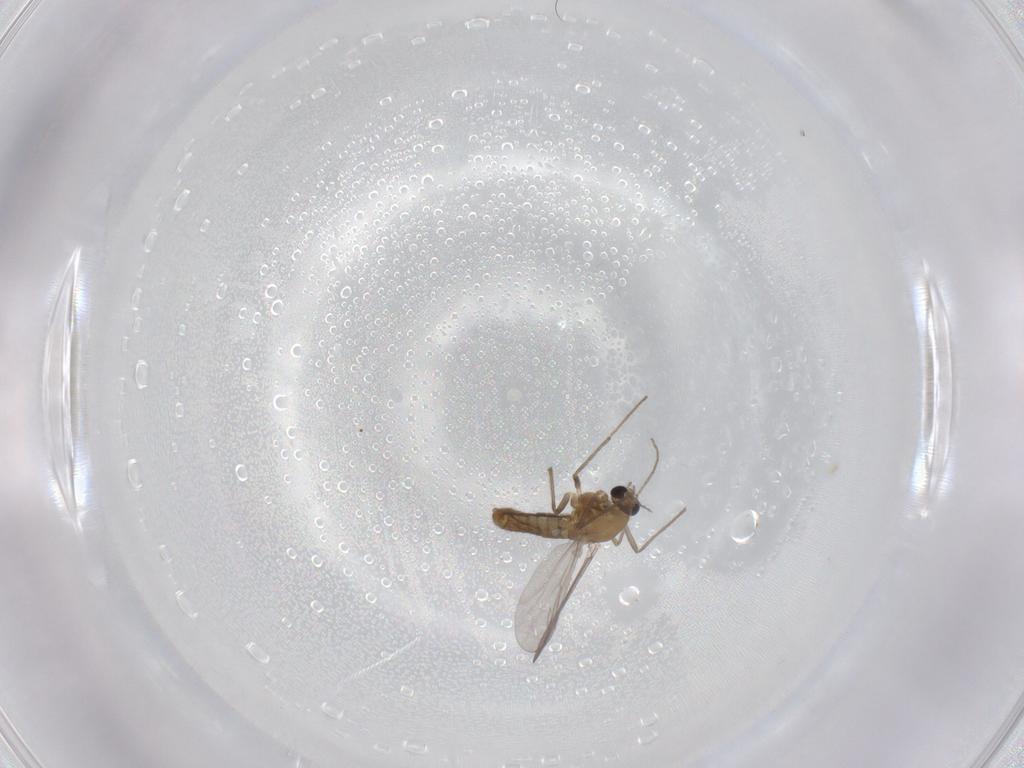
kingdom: Animalia
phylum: Arthropoda
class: Insecta
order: Diptera
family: Chironomidae
